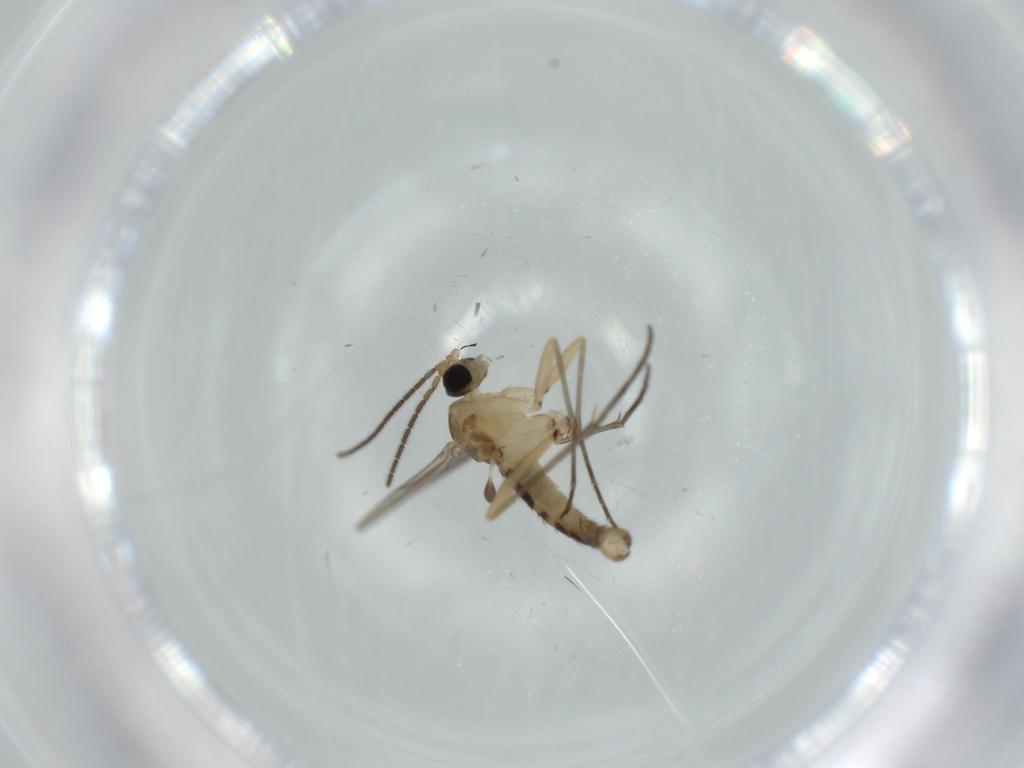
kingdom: Animalia
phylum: Arthropoda
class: Insecta
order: Diptera
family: Sciaridae
